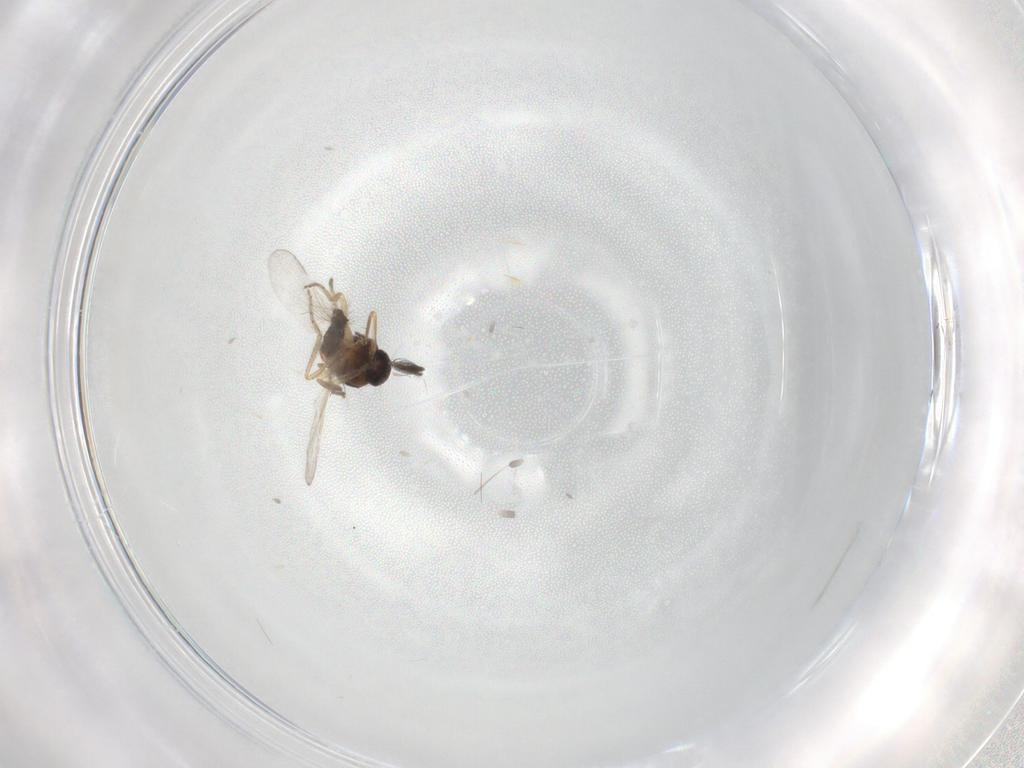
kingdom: Animalia
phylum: Arthropoda
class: Insecta
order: Diptera
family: Ceratopogonidae
